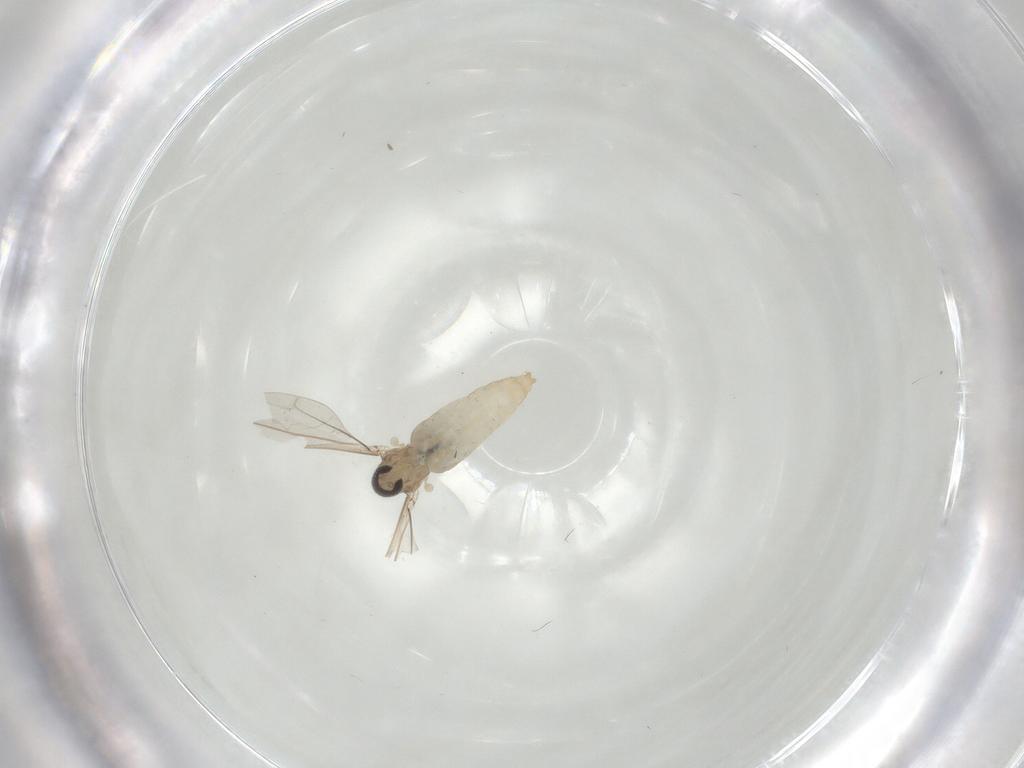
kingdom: Animalia
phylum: Arthropoda
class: Insecta
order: Diptera
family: Cecidomyiidae
